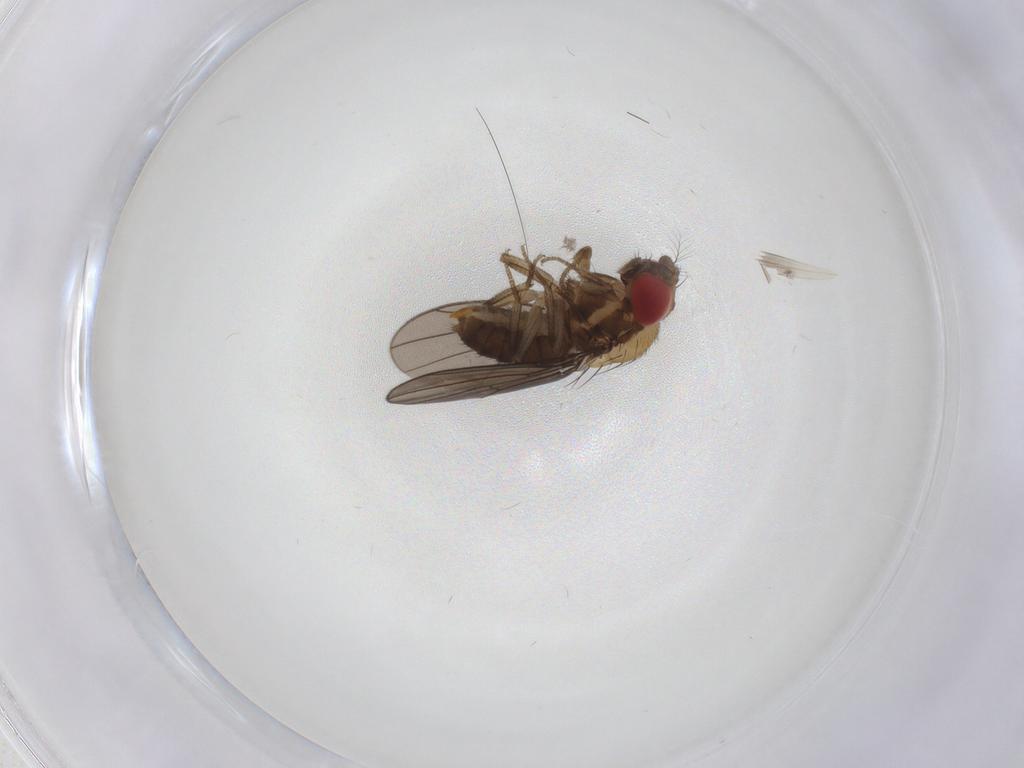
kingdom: Animalia
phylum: Arthropoda
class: Insecta
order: Diptera
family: Drosophilidae
